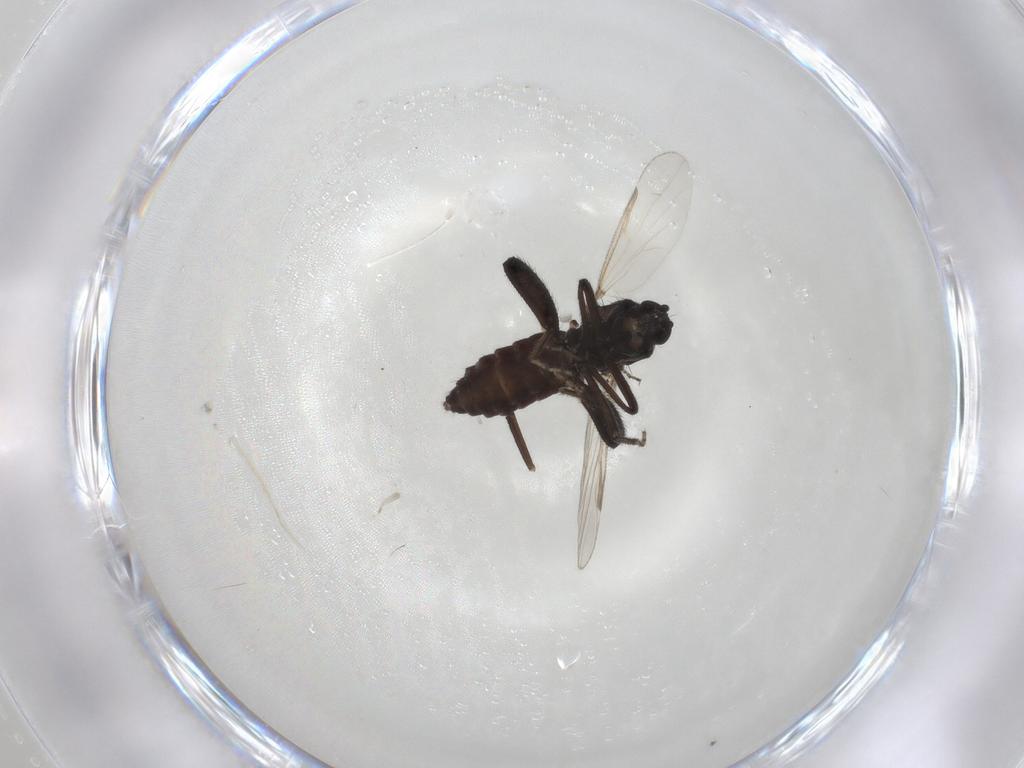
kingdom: Animalia
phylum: Arthropoda
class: Insecta
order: Diptera
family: Ceratopogonidae
